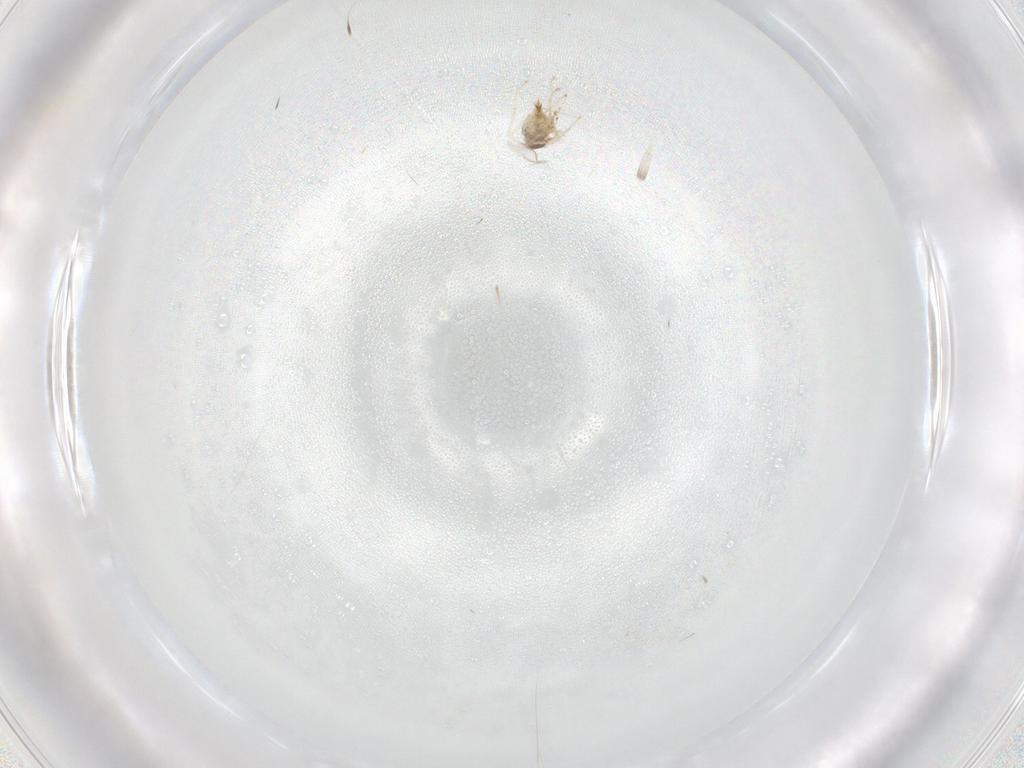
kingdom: Animalia
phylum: Arthropoda
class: Insecta
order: Diptera
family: Cecidomyiidae
